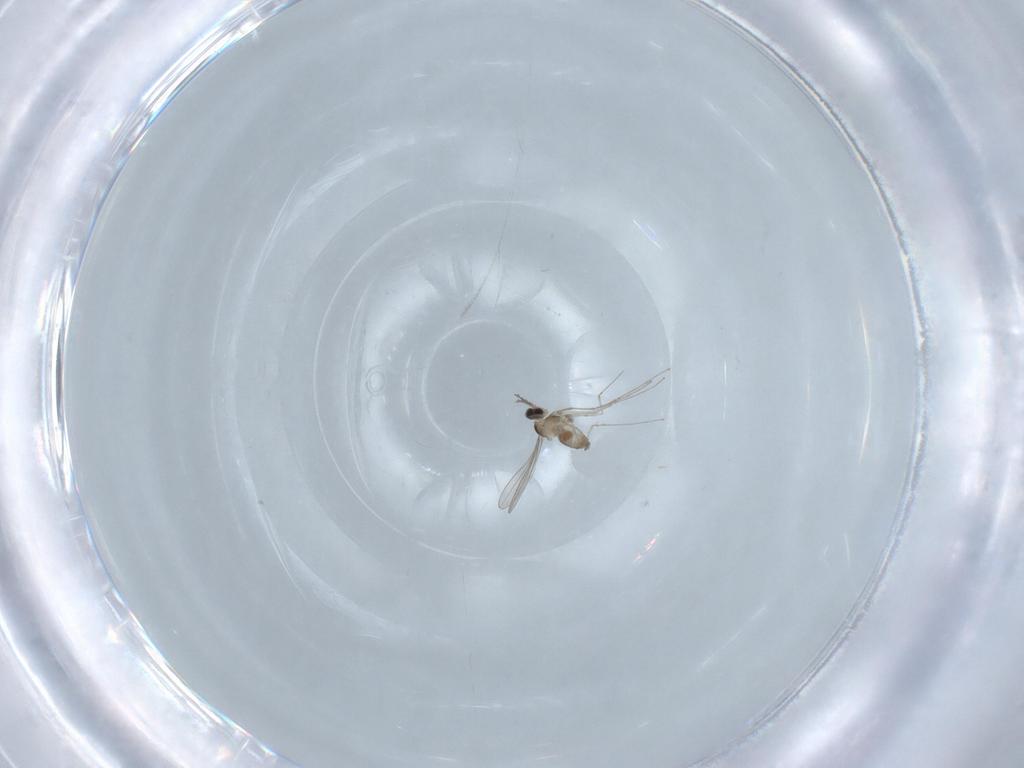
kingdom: Animalia
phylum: Arthropoda
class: Insecta
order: Diptera
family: Cecidomyiidae
